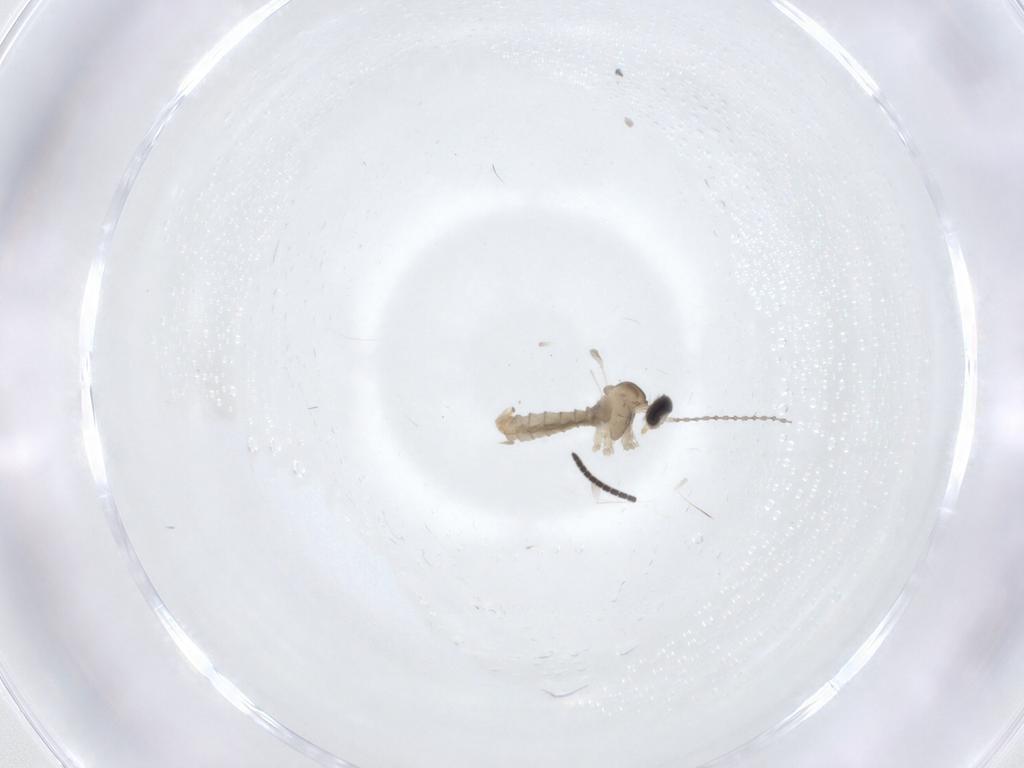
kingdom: Animalia
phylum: Arthropoda
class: Insecta
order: Diptera
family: Cecidomyiidae
